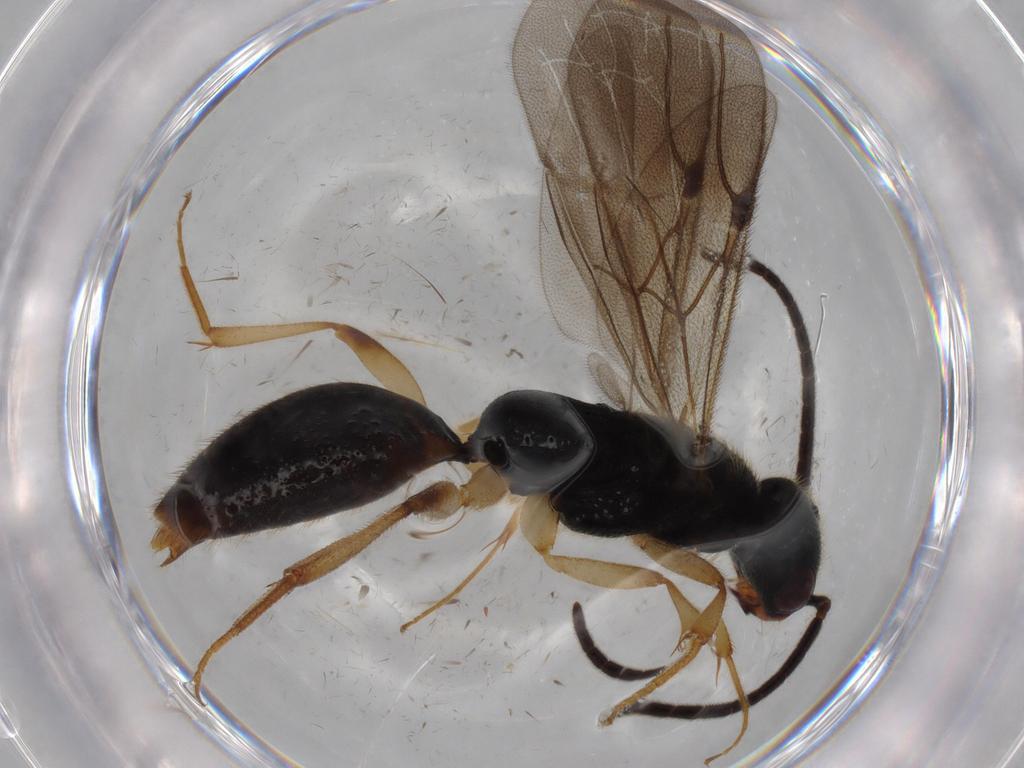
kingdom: Animalia
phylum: Arthropoda
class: Insecta
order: Hymenoptera
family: Bethylidae
